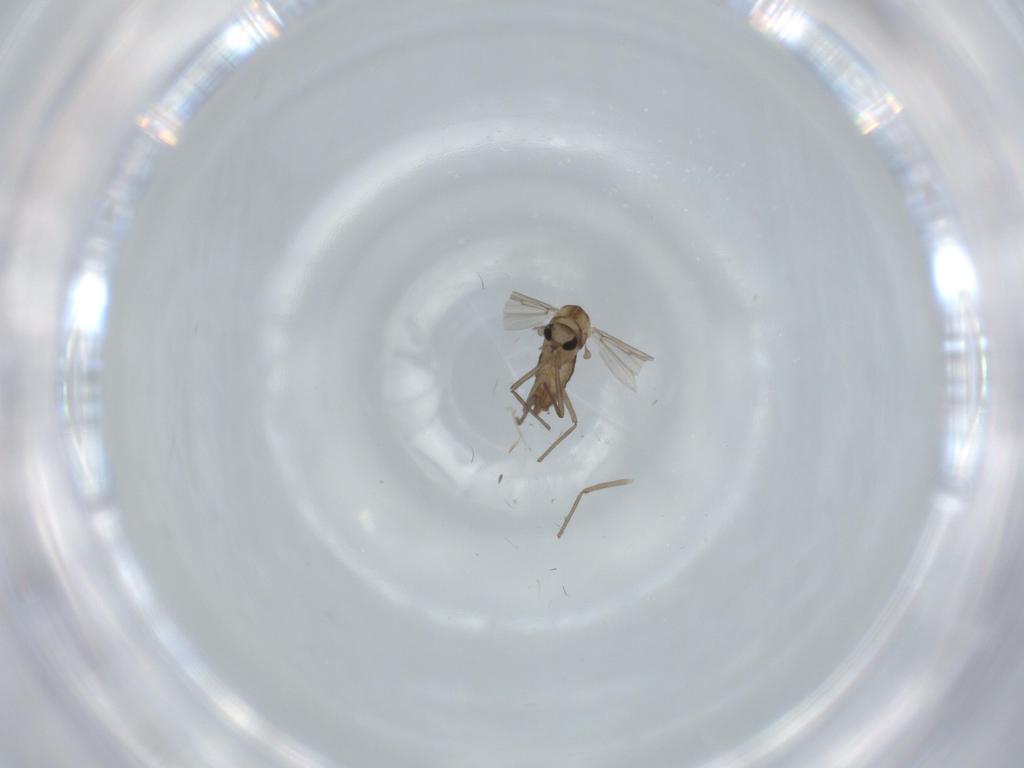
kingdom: Animalia
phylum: Arthropoda
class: Insecta
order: Diptera
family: Chironomidae
